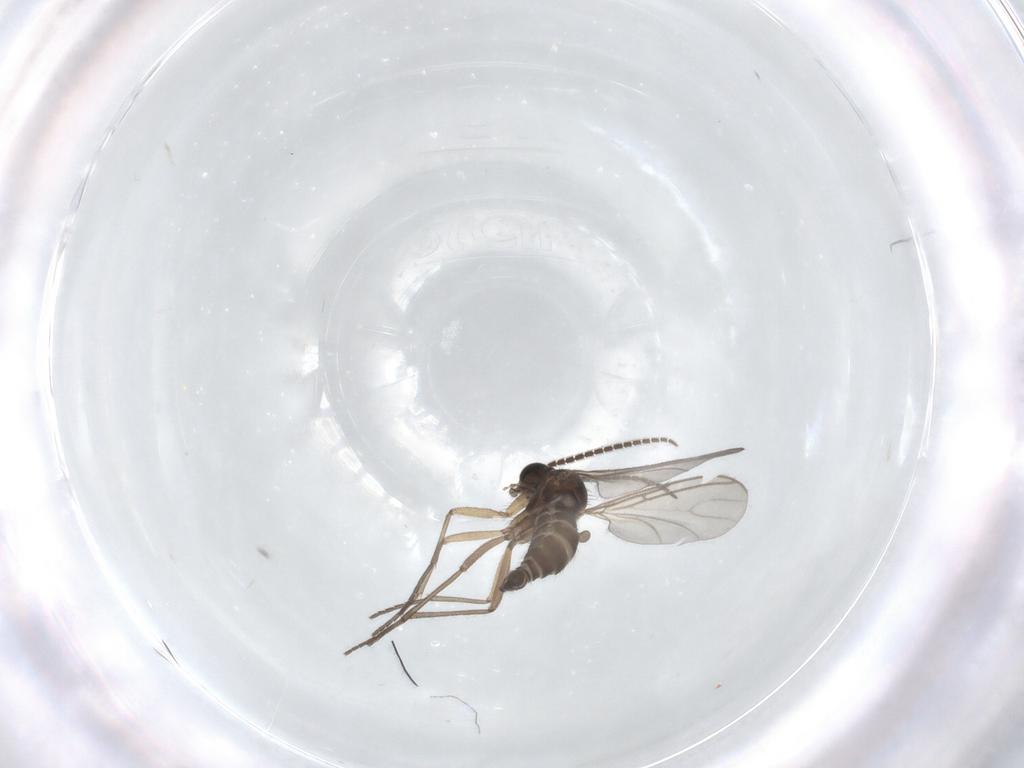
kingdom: Animalia
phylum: Arthropoda
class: Insecta
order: Diptera
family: Sciaridae
